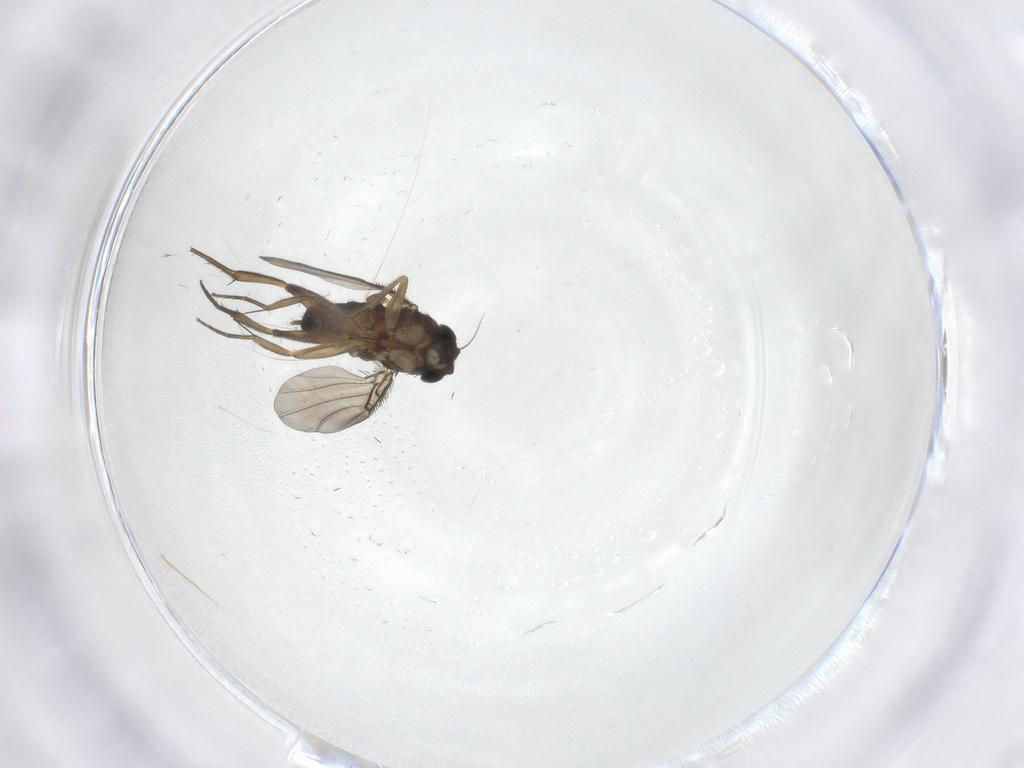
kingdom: Animalia
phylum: Arthropoda
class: Insecta
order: Diptera
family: Phoridae
